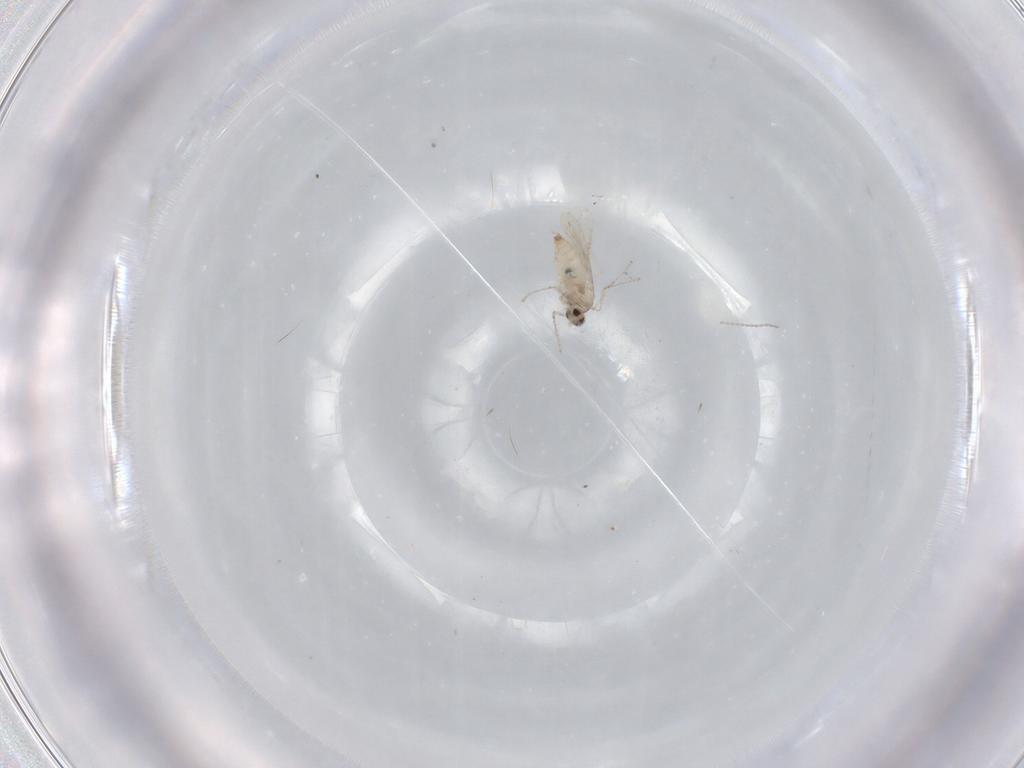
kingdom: Animalia
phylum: Arthropoda
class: Insecta
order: Diptera
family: Cecidomyiidae
